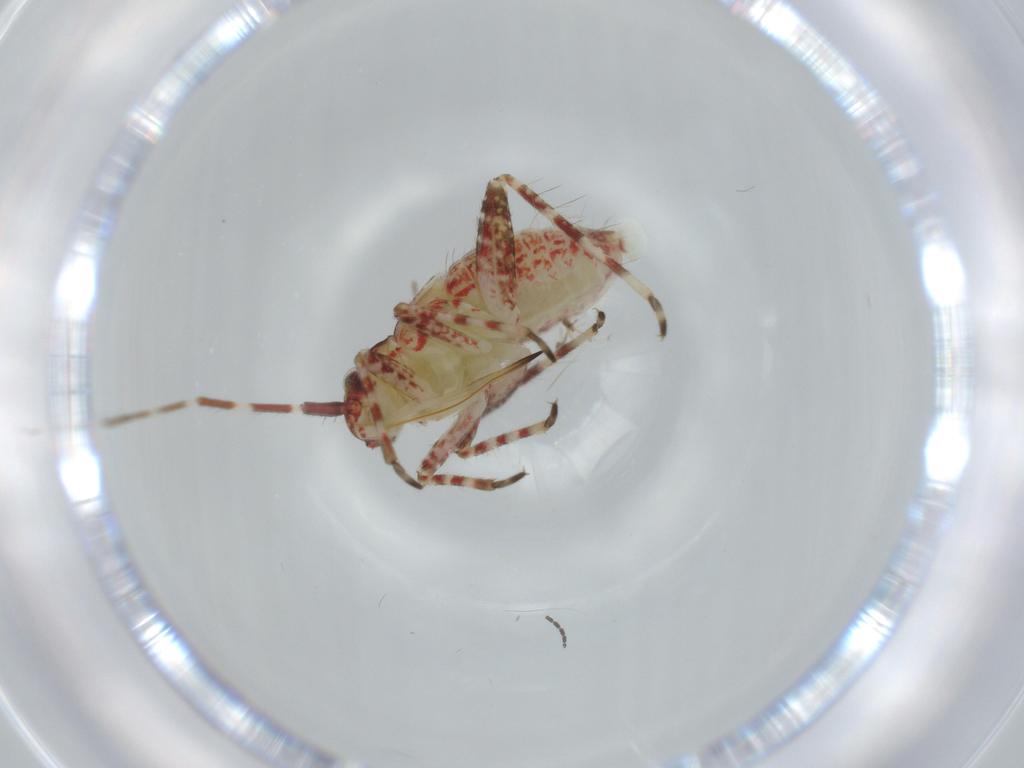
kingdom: Animalia
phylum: Arthropoda
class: Insecta
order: Hemiptera
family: Miridae
